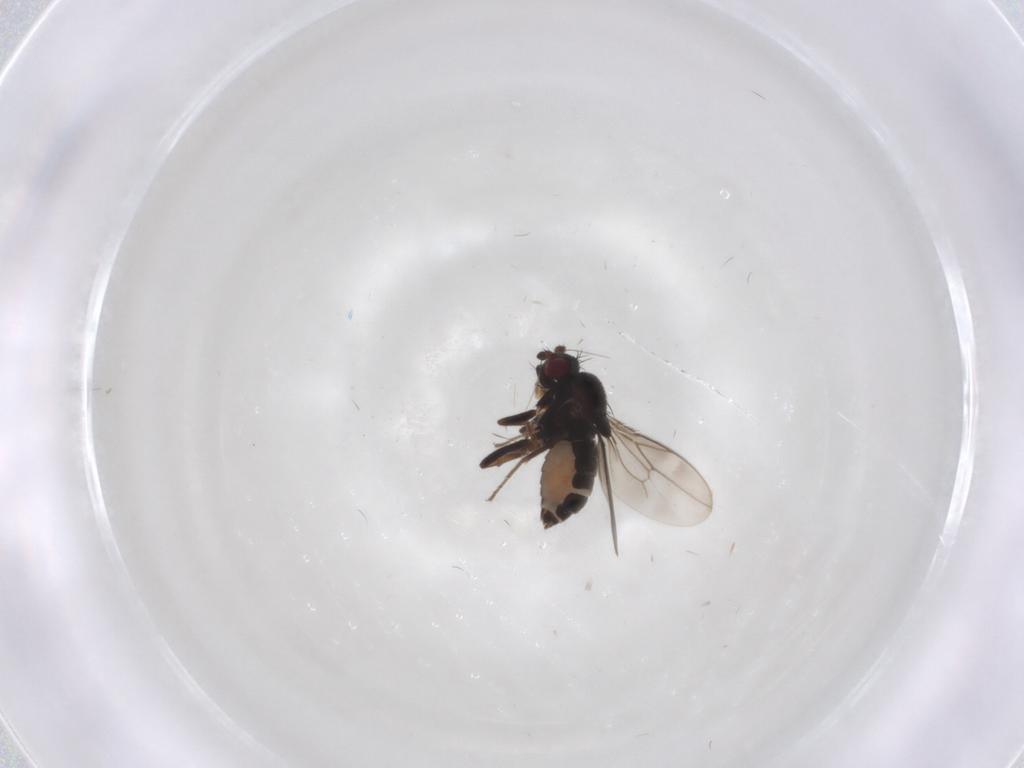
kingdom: Animalia
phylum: Arthropoda
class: Insecta
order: Diptera
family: Sphaeroceridae
